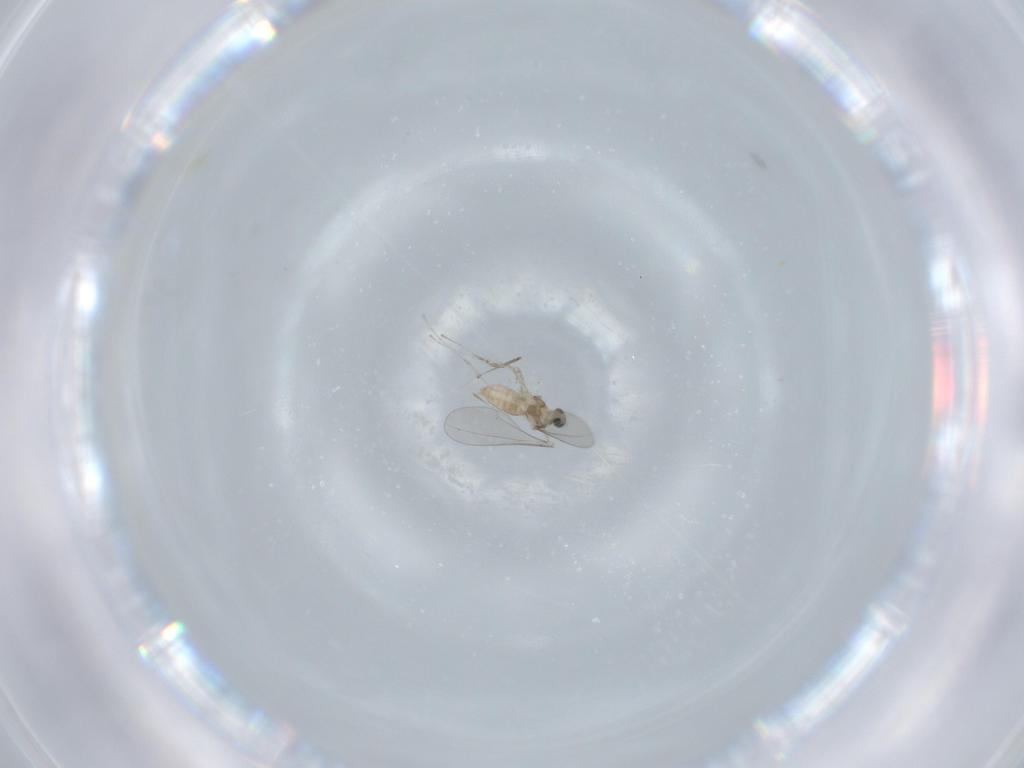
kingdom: Animalia
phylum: Arthropoda
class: Insecta
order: Diptera
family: Cecidomyiidae
